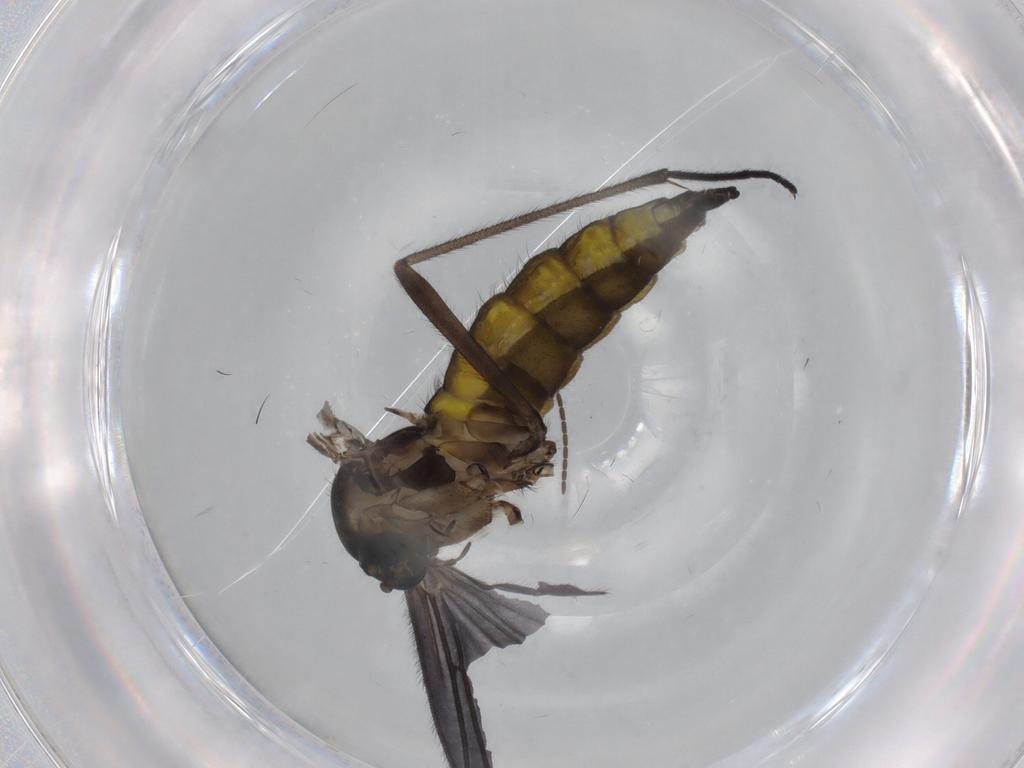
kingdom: Animalia
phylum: Arthropoda
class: Insecta
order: Diptera
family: Sciaridae
